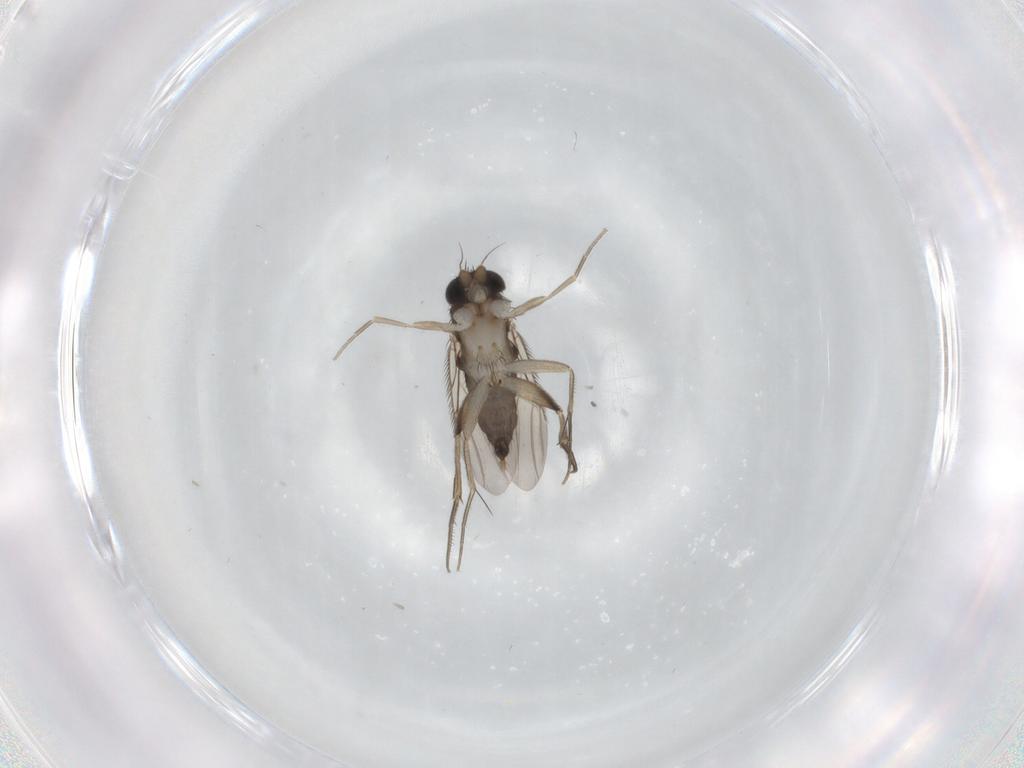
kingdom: Animalia
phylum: Arthropoda
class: Insecta
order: Diptera
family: Phoridae
